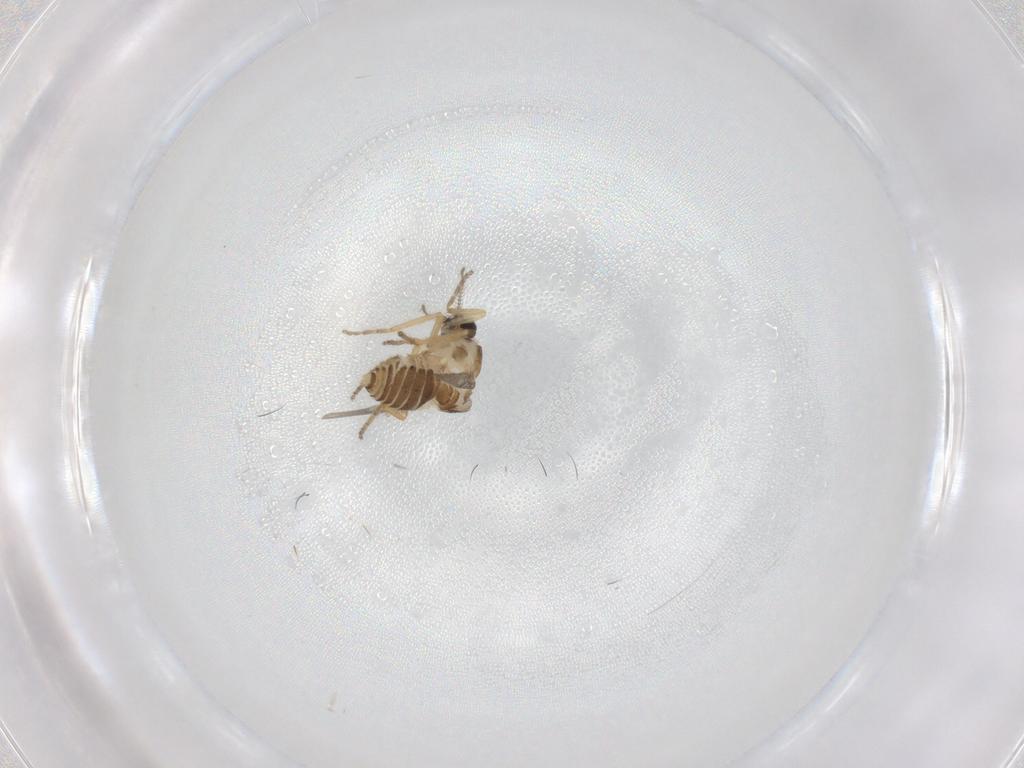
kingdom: Animalia
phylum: Arthropoda
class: Insecta
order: Diptera
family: Ceratopogonidae
